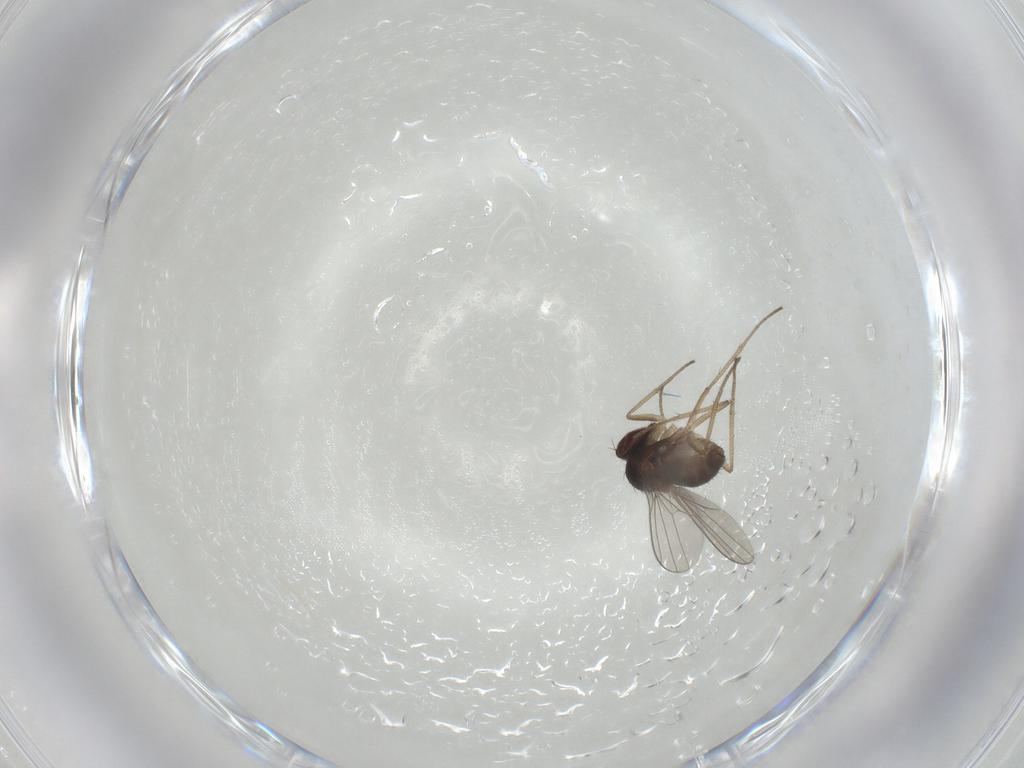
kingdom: Animalia
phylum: Arthropoda
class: Insecta
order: Diptera
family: Dolichopodidae
